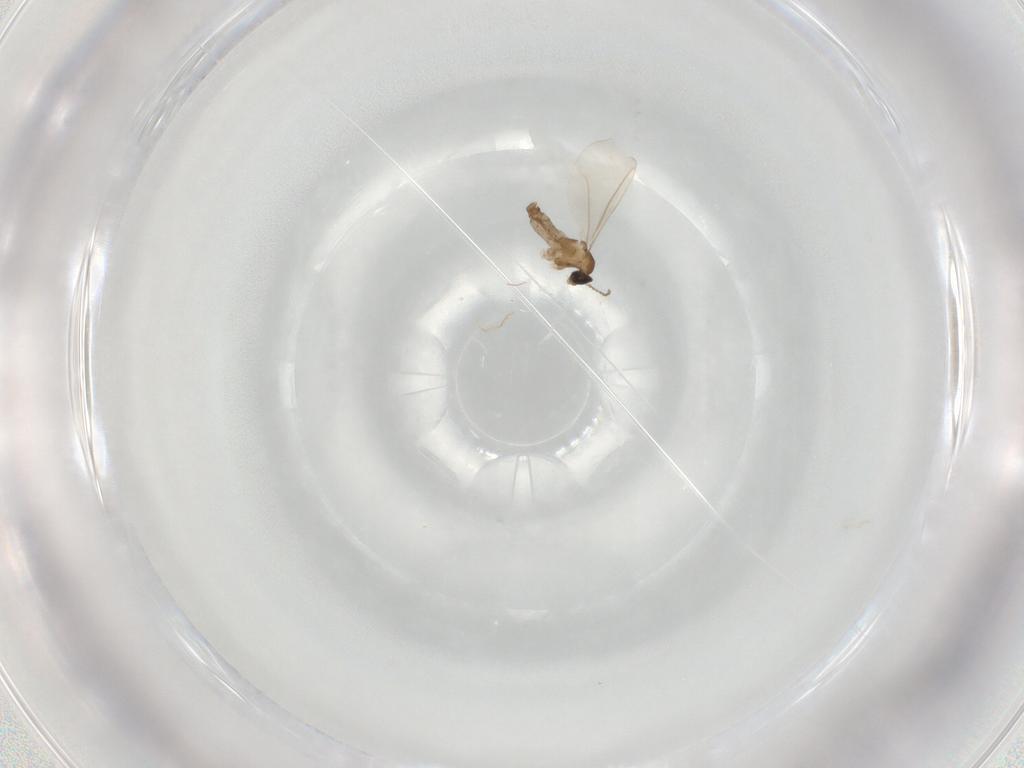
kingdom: Animalia
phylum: Arthropoda
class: Insecta
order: Diptera
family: Cecidomyiidae
